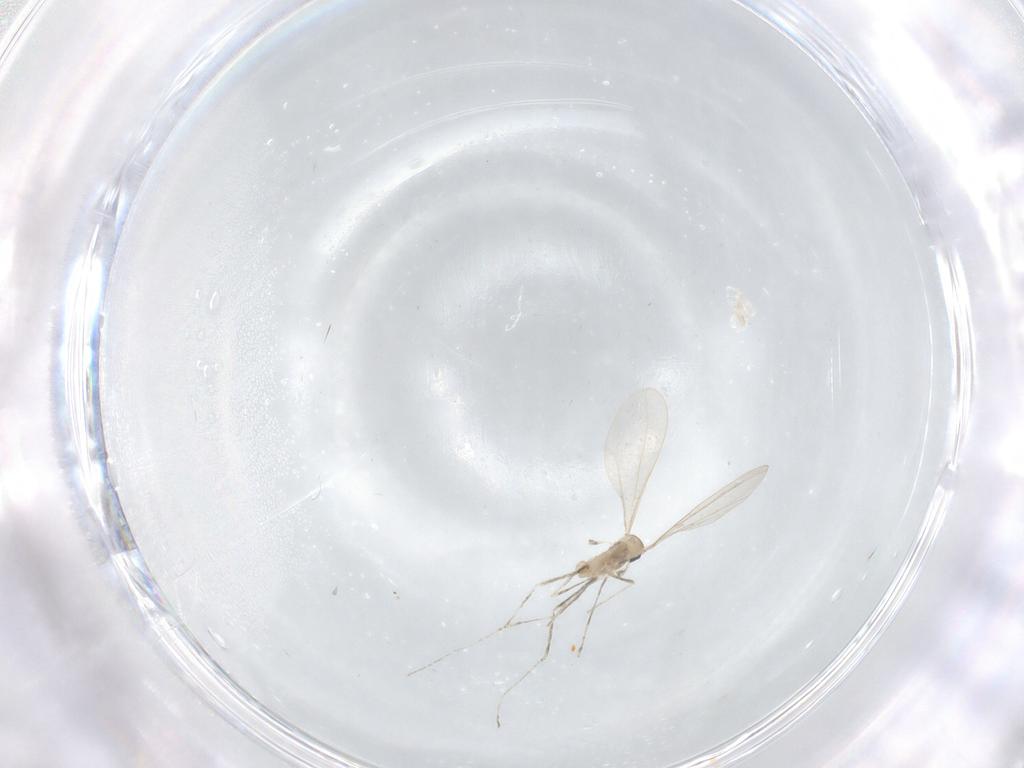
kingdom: Animalia
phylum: Arthropoda
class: Insecta
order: Diptera
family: Cecidomyiidae
